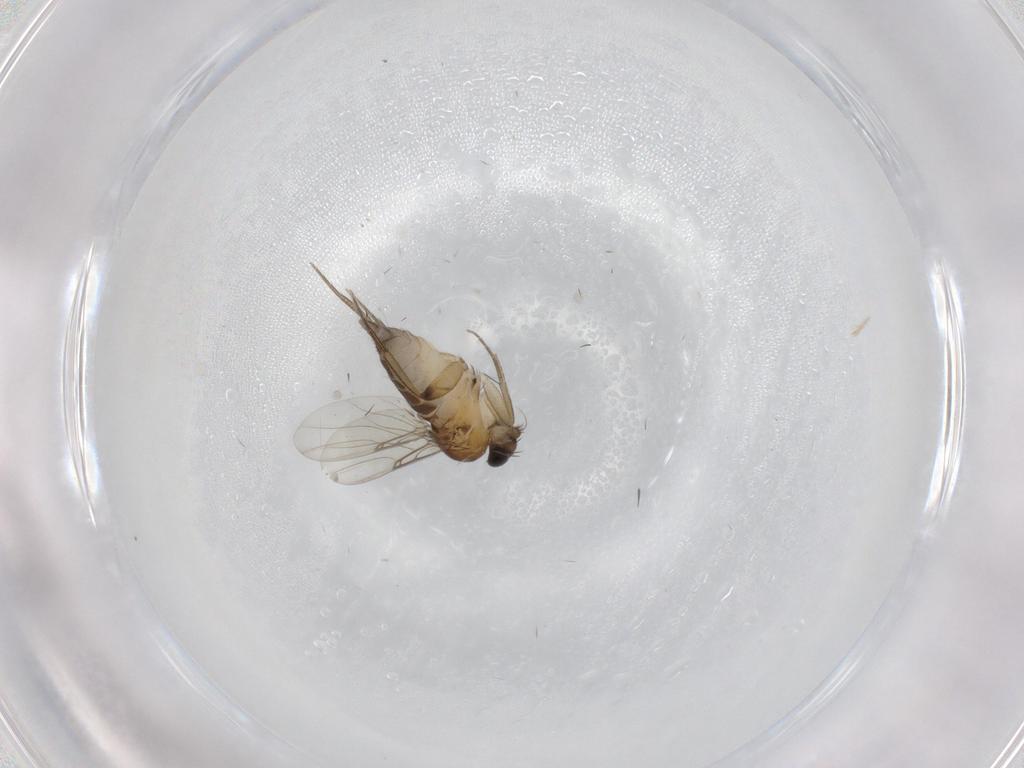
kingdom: Animalia
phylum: Arthropoda
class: Insecta
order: Diptera
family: Phoridae
